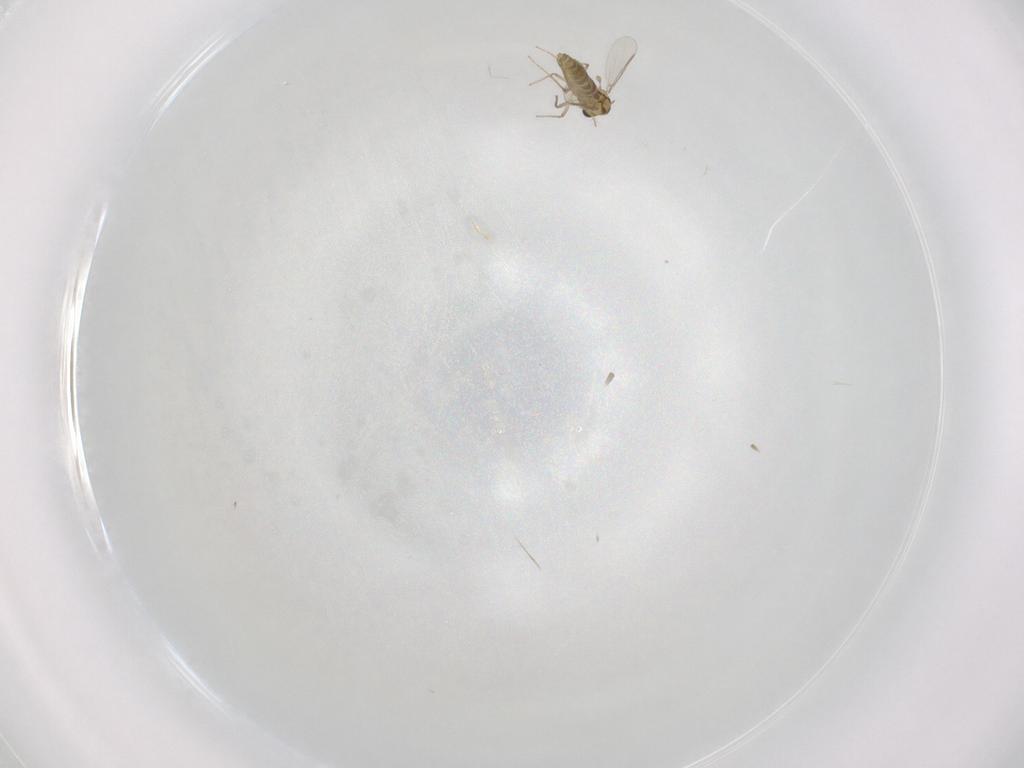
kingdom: Animalia
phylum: Arthropoda
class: Insecta
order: Diptera
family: Chironomidae
